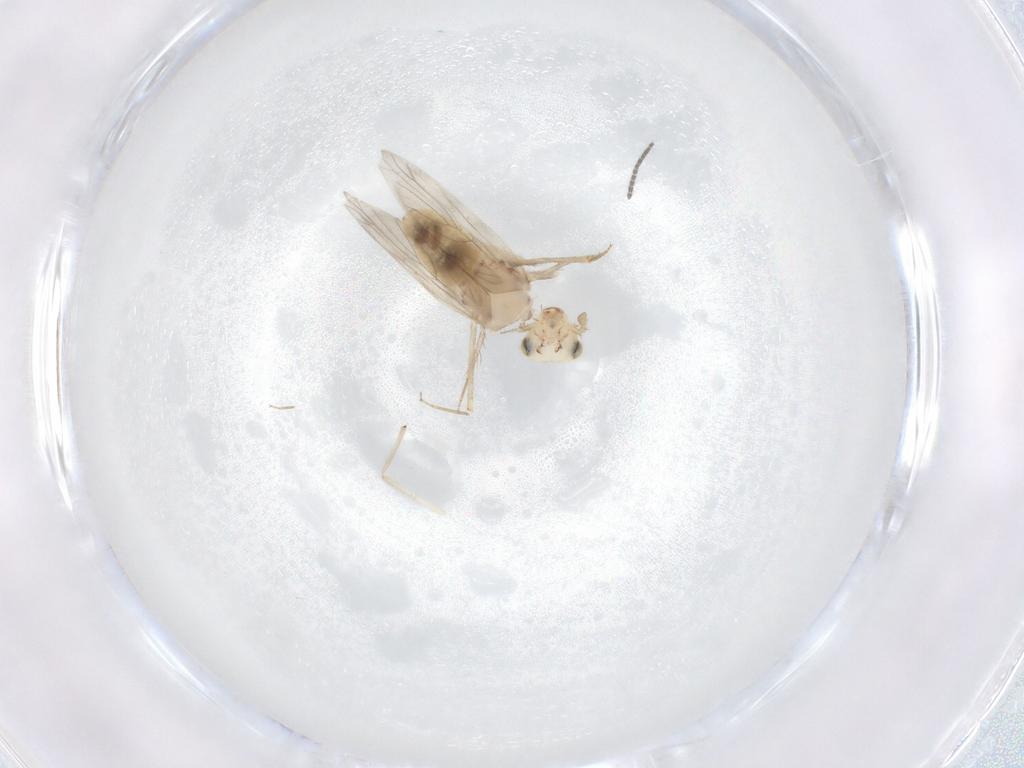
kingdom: Animalia
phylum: Arthropoda
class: Insecta
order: Psocodea
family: Lepidopsocidae
